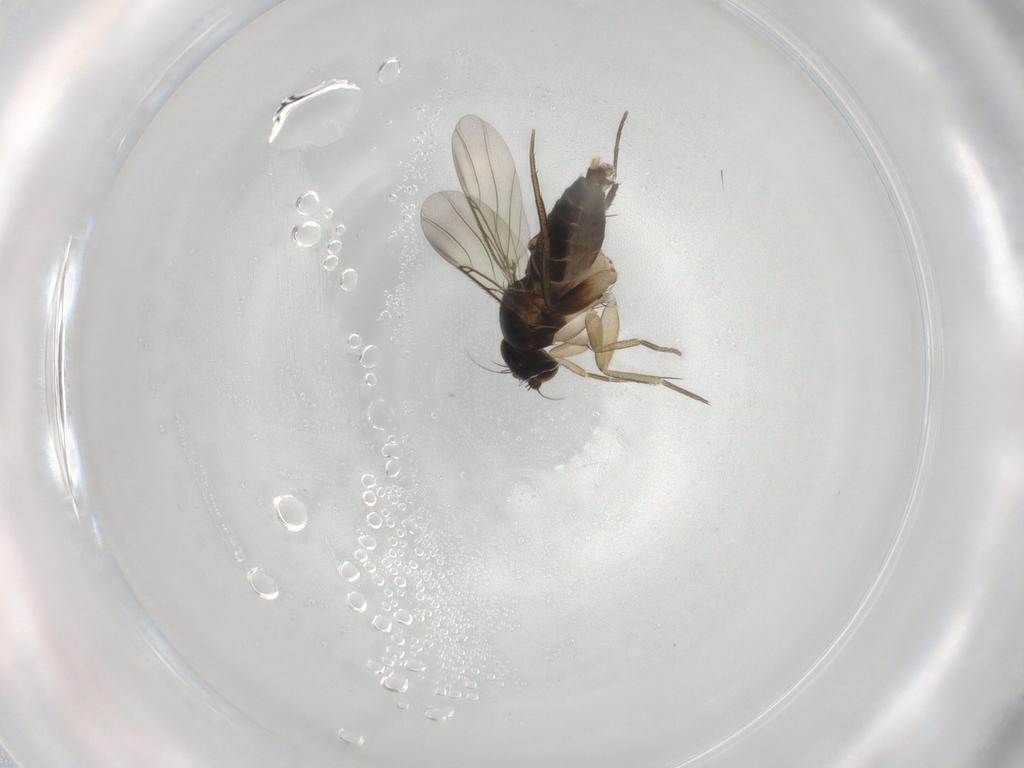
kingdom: Animalia
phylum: Arthropoda
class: Insecta
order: Diptera
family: Phoridae
